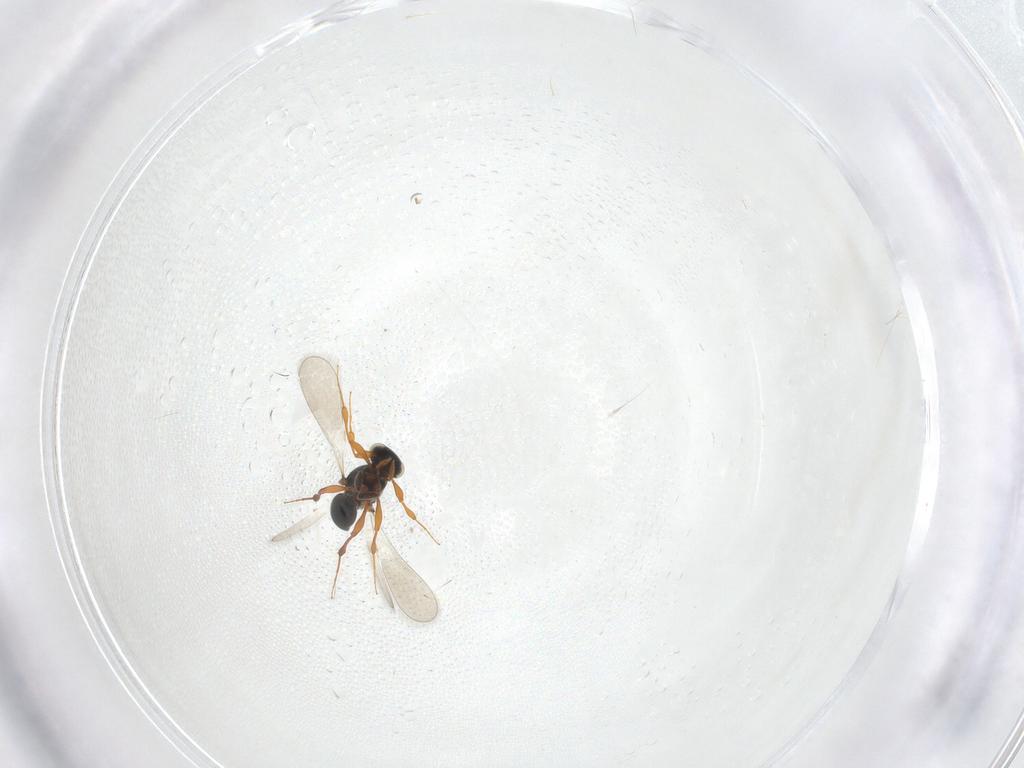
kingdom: Animalia
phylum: Arthropoda
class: Insecta
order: Hymenoptera
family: Platygastridae
